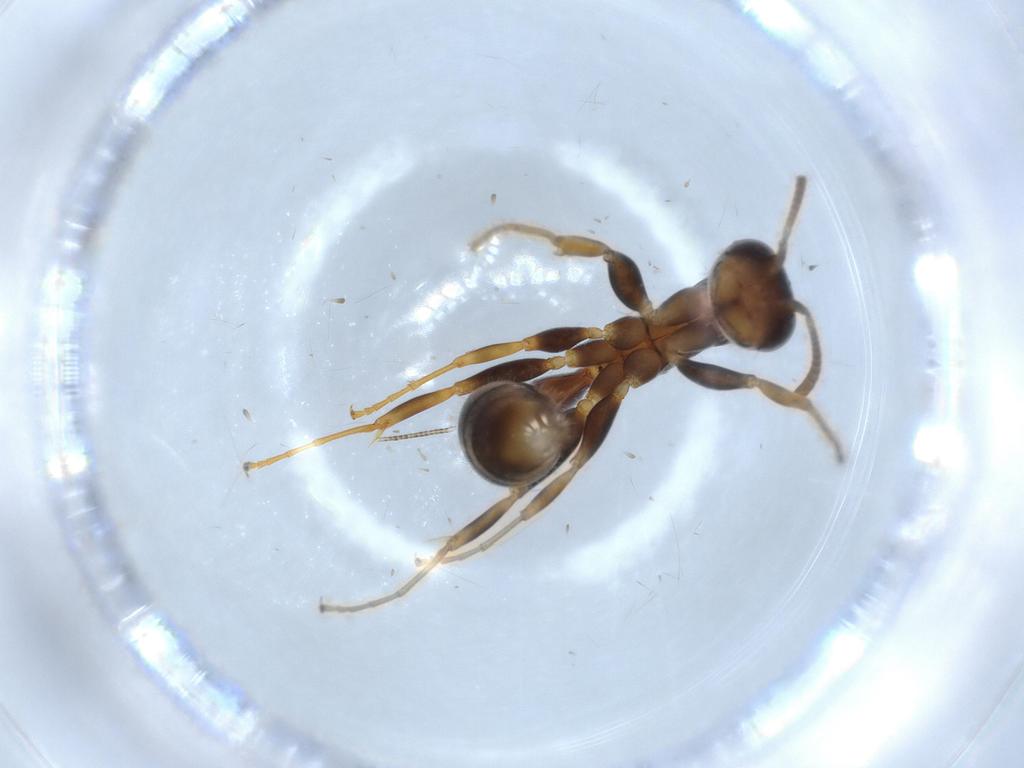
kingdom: Animalia
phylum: Arthropoda
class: Insecta
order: Hymenoptera
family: Formicidae
